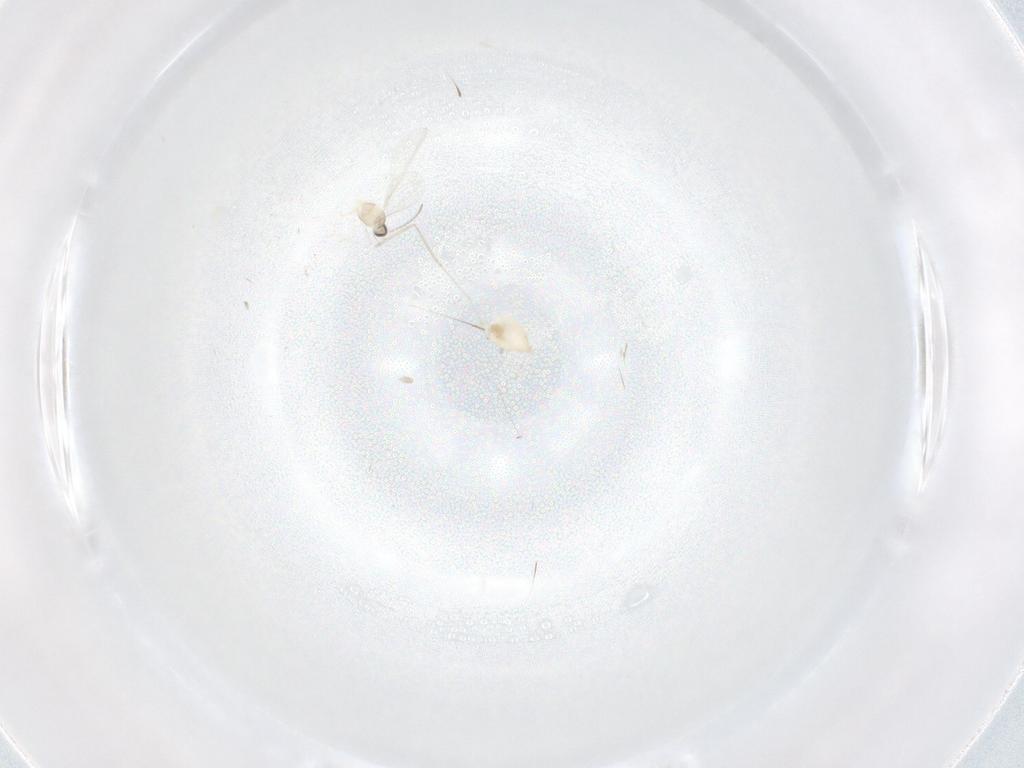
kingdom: Animalia
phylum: Arthropoda
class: Insecta
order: Diptera
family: Cecidomyiidae
